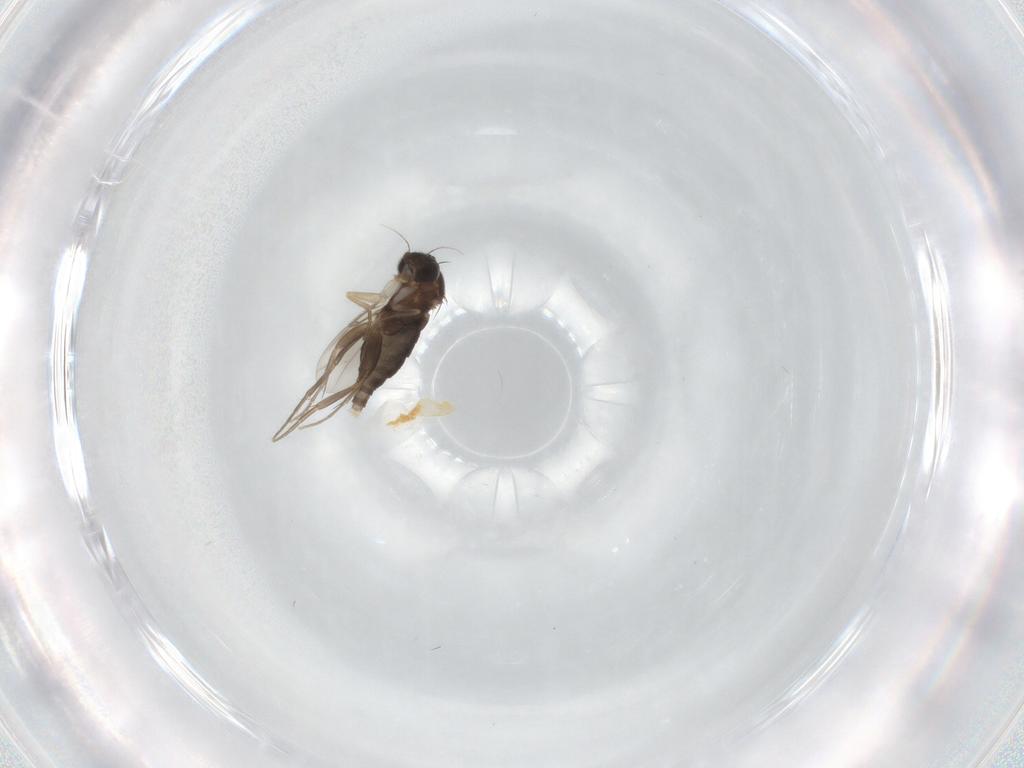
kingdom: Animalia
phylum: Arthropoda
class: Insecta
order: Diptera
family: Phoridae
